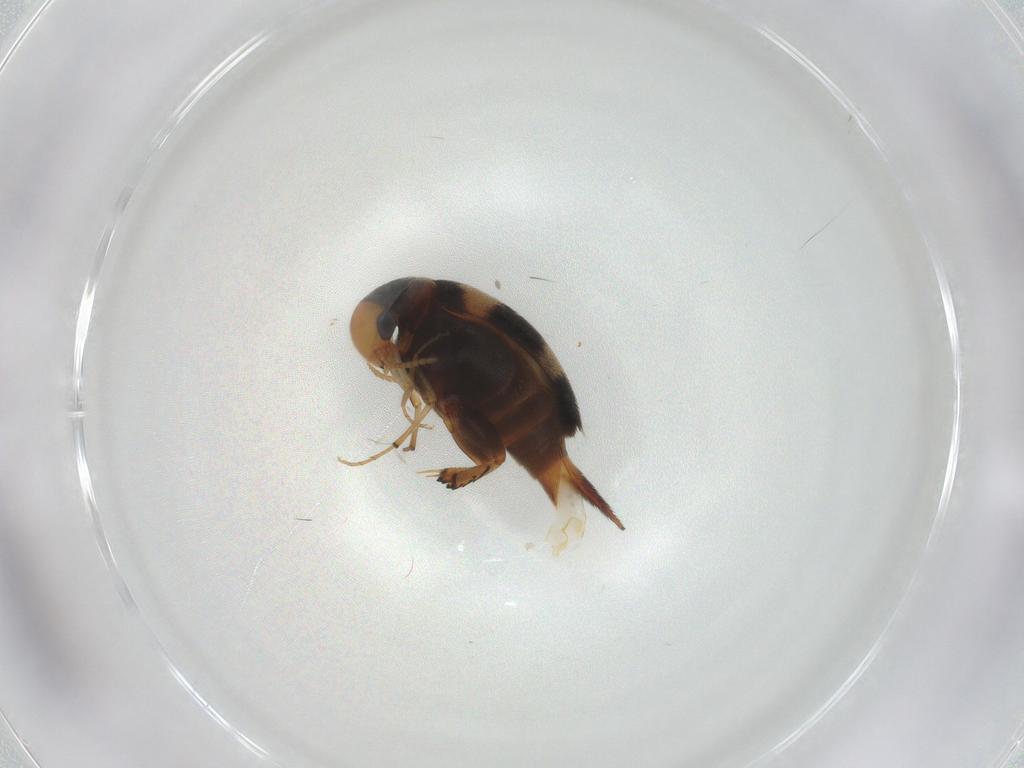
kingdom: Animalia
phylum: Arthropoda
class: Insecta
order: Coleoptera
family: Mordellidae
